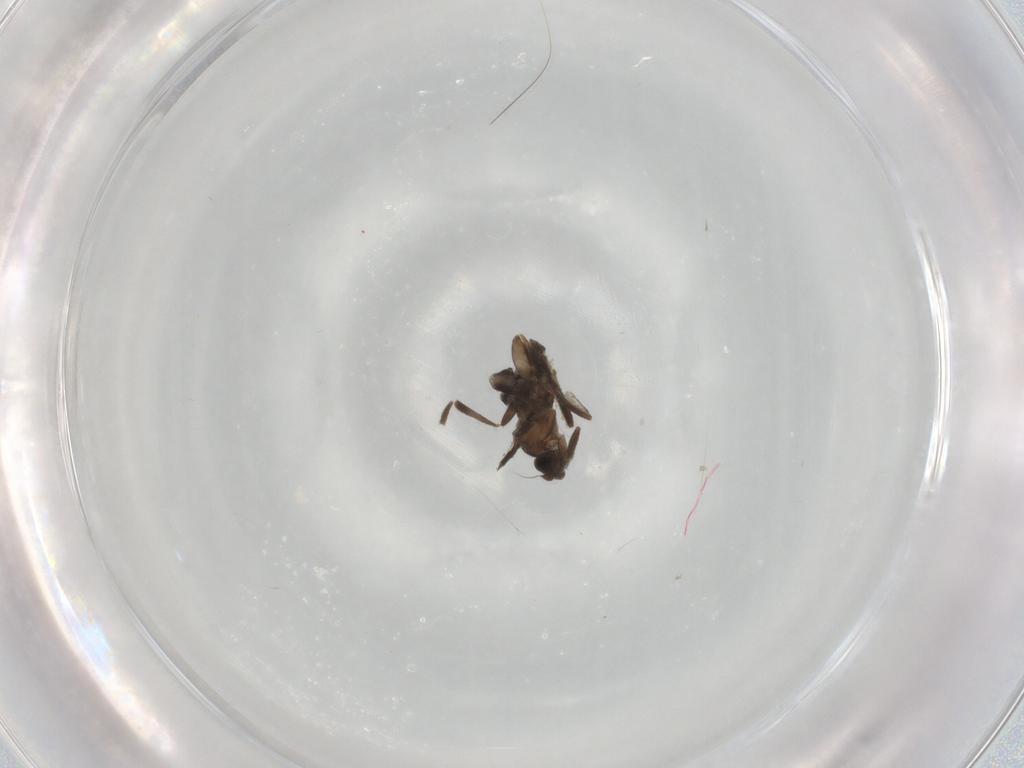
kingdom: Animalia
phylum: Arthropoda
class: Insecta
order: Diptera
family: Phoridae
